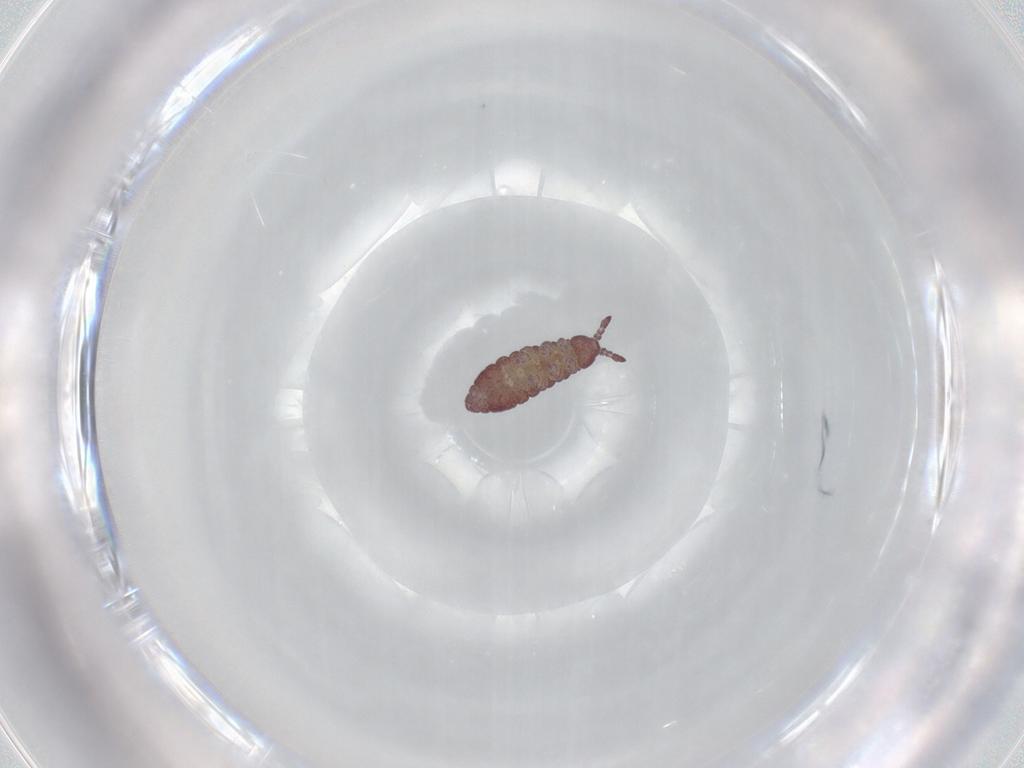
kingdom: Animalia
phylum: Arthropoda
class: Collembola
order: Poduromorpha
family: Hypogastruridae
